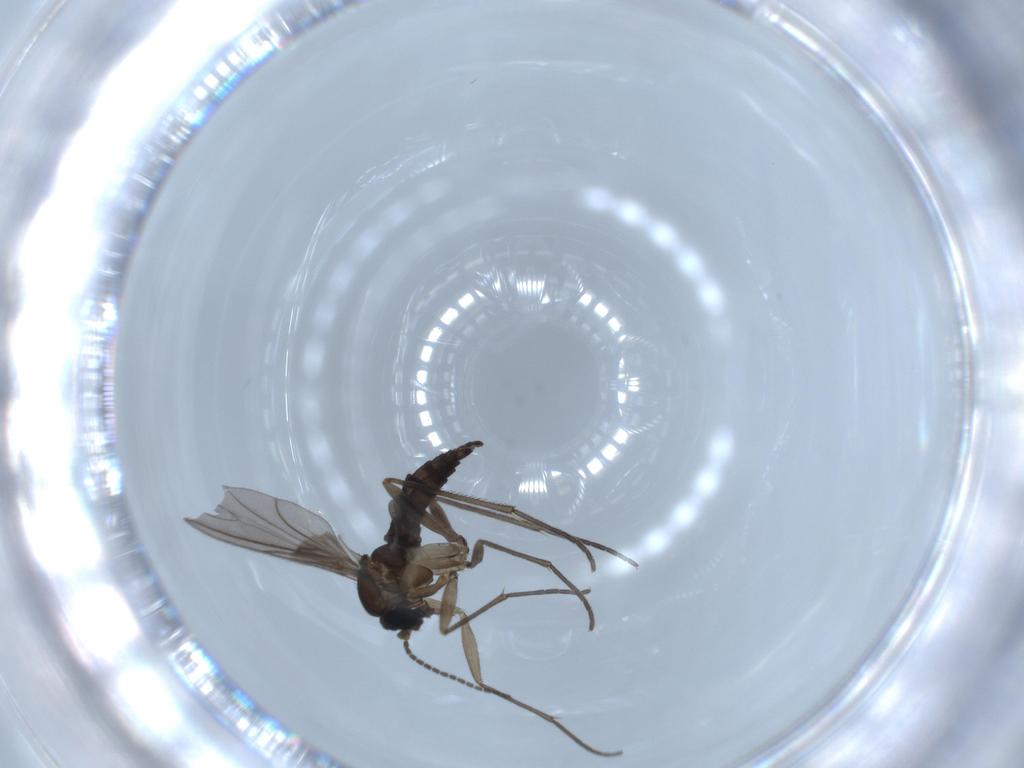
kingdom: Animalia
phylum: Arthropoda
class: Insecta
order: Diptera
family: Sciaridae
